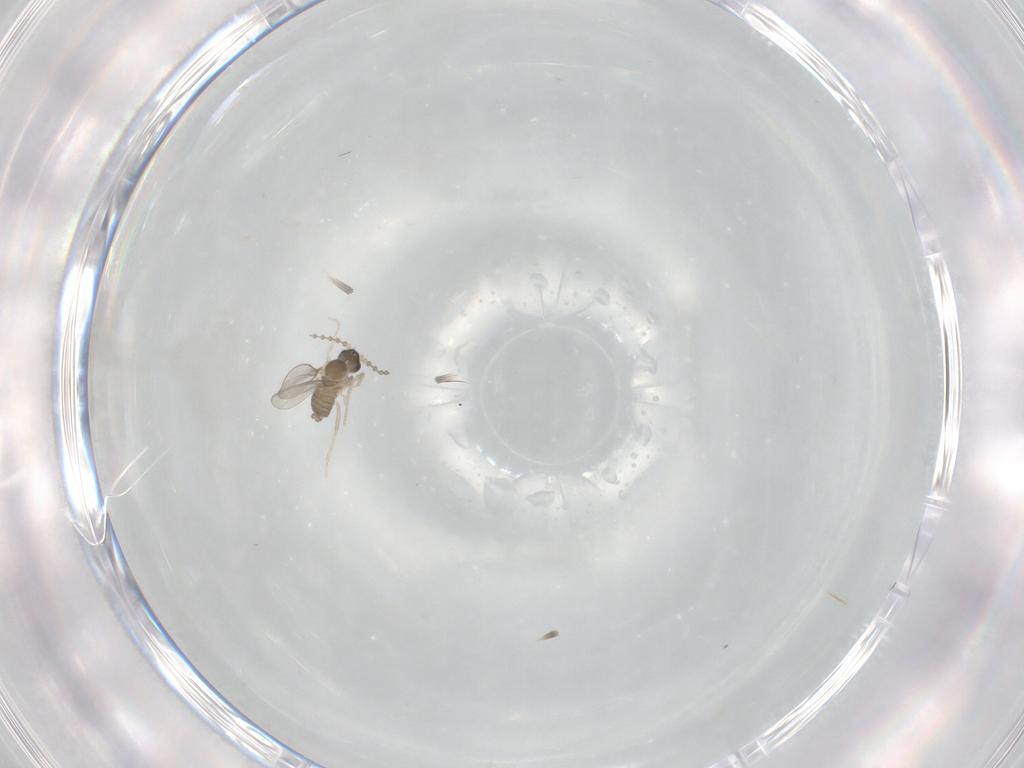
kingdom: Animalia
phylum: Arthropoda
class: Insecta
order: Diptera
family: Cecidomyiidae
